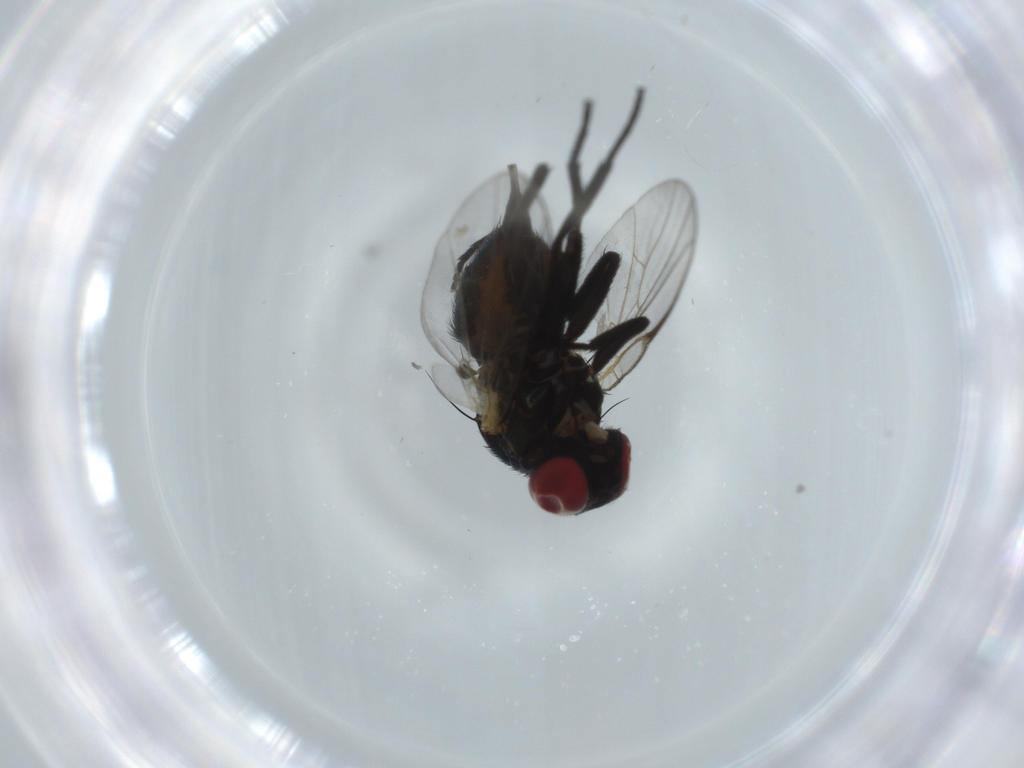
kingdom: Animalia
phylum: Arthropoda
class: Insecta
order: Diptera
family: Agromyzidae
